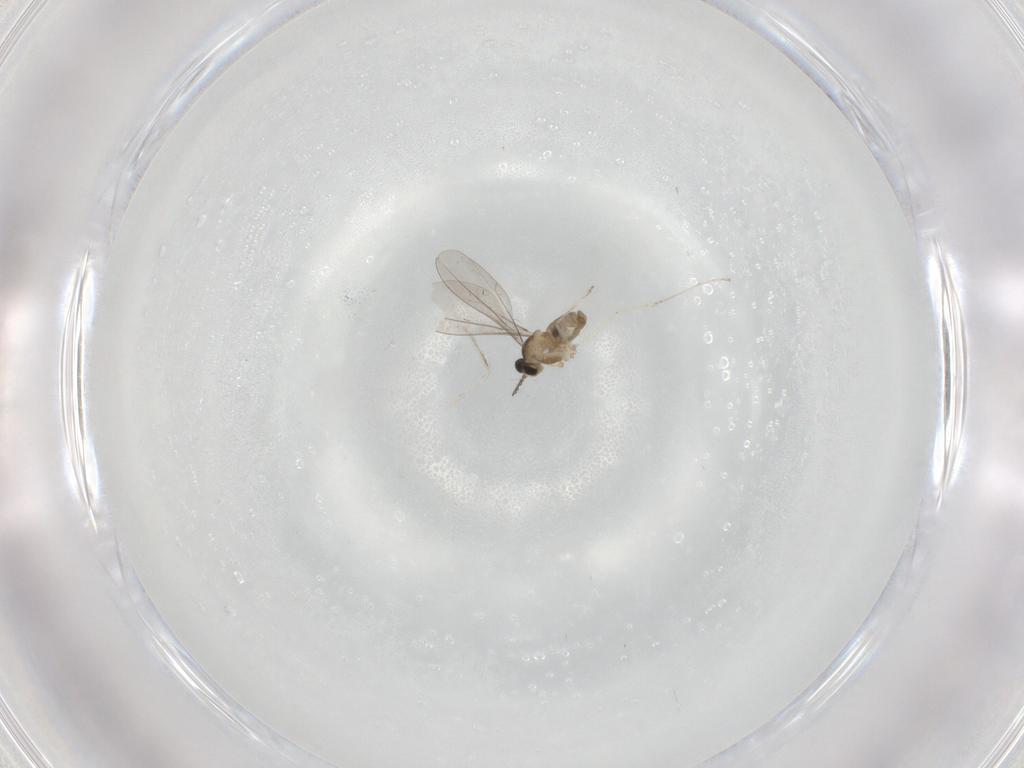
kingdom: Animalia
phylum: Arthropoda
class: Insecta
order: Diptera
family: Cecidomyiidae
